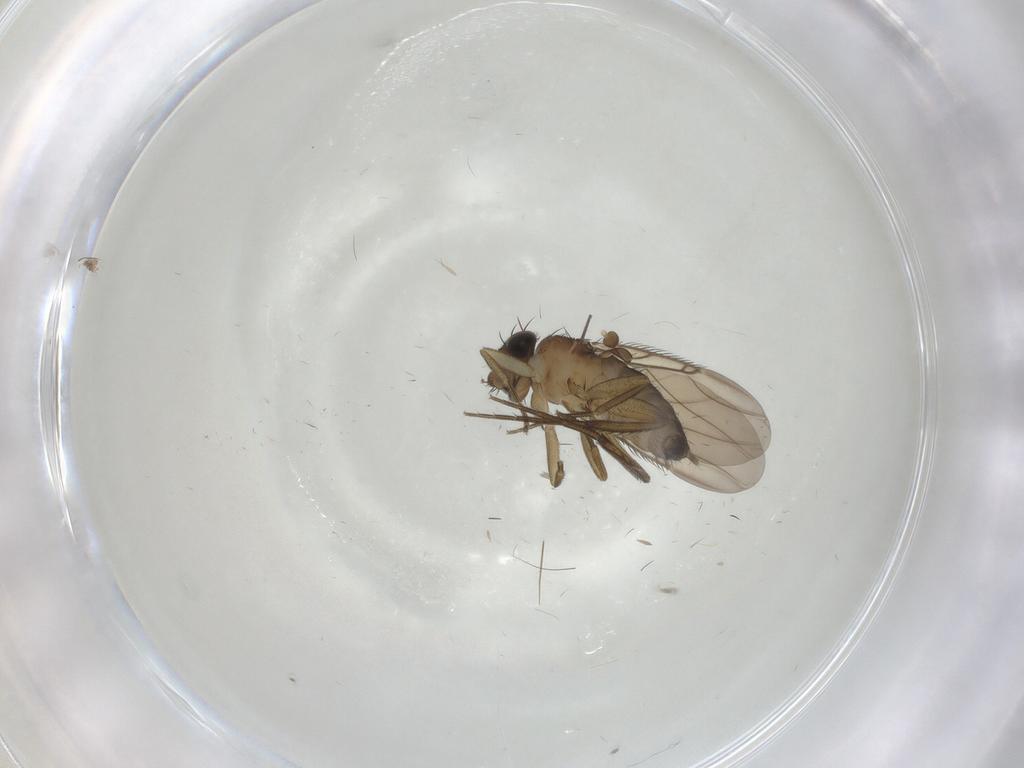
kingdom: Animalia
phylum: Arthropoda
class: Insecta
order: Diptera
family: Phoridae
